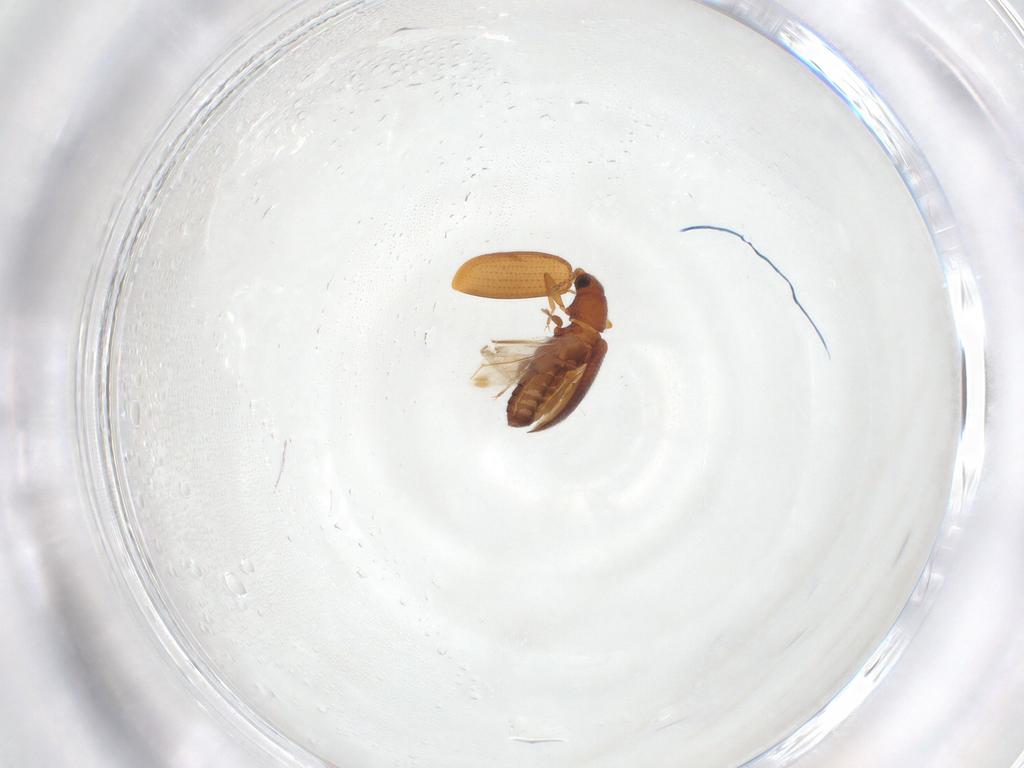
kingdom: Animalia
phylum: Arthropoda
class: Insecta
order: Coleoptera
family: Latridiidae
